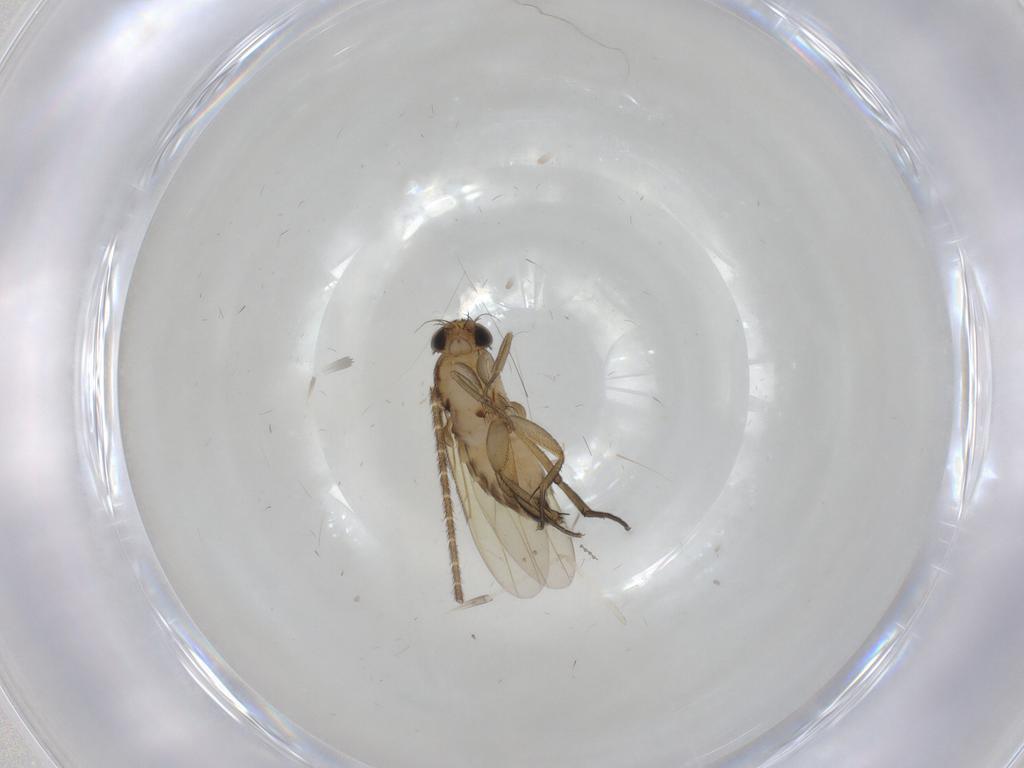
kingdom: Animalia
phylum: Arthropoda
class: Insecta
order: Diptera
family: Phoridae
